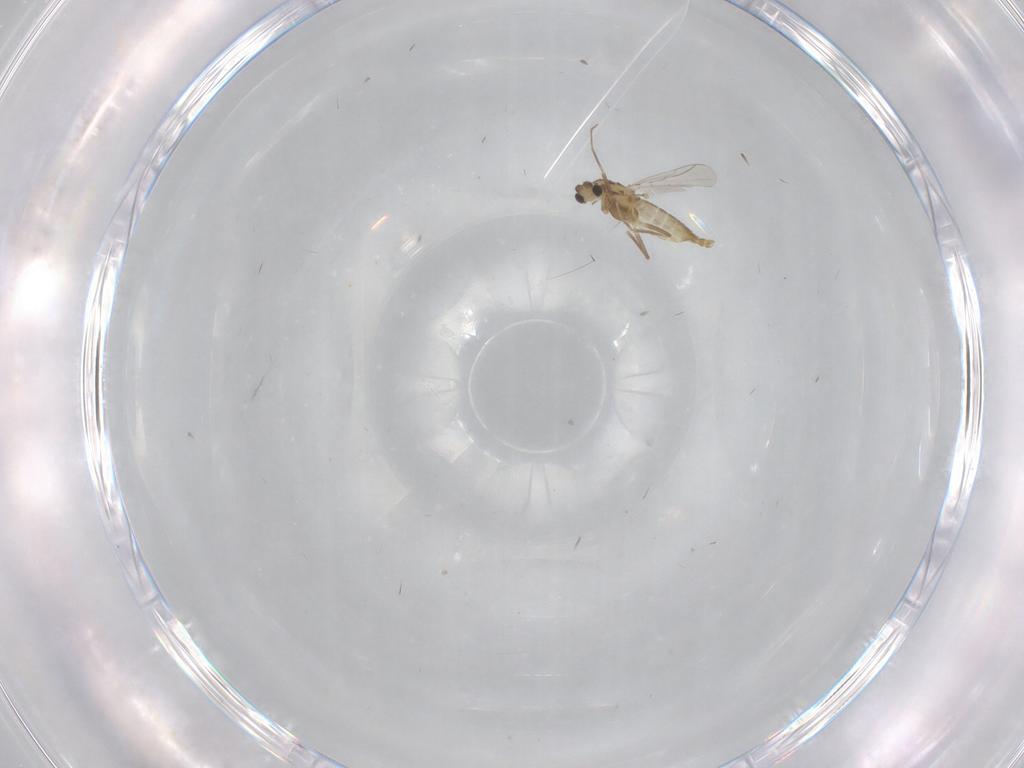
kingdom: Animalia
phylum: Arthropoda
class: Insecta
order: Diptera
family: Chironomidae
